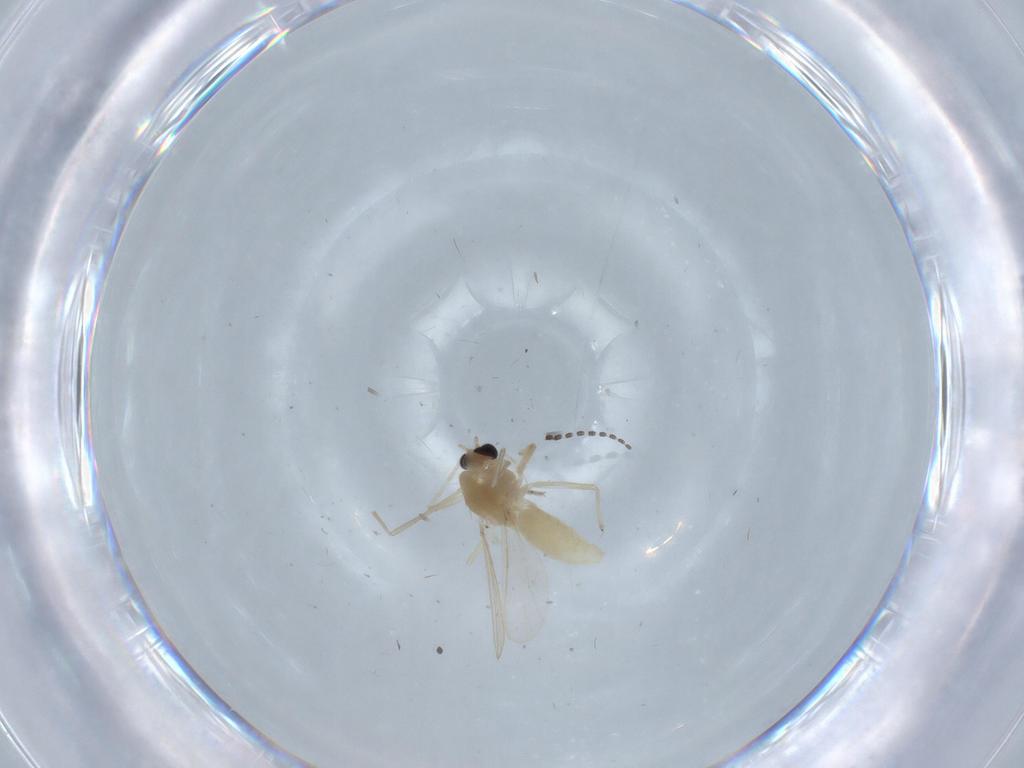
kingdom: Animalia
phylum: Arthropoda
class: Insecta
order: Diptera
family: Chironomidae
